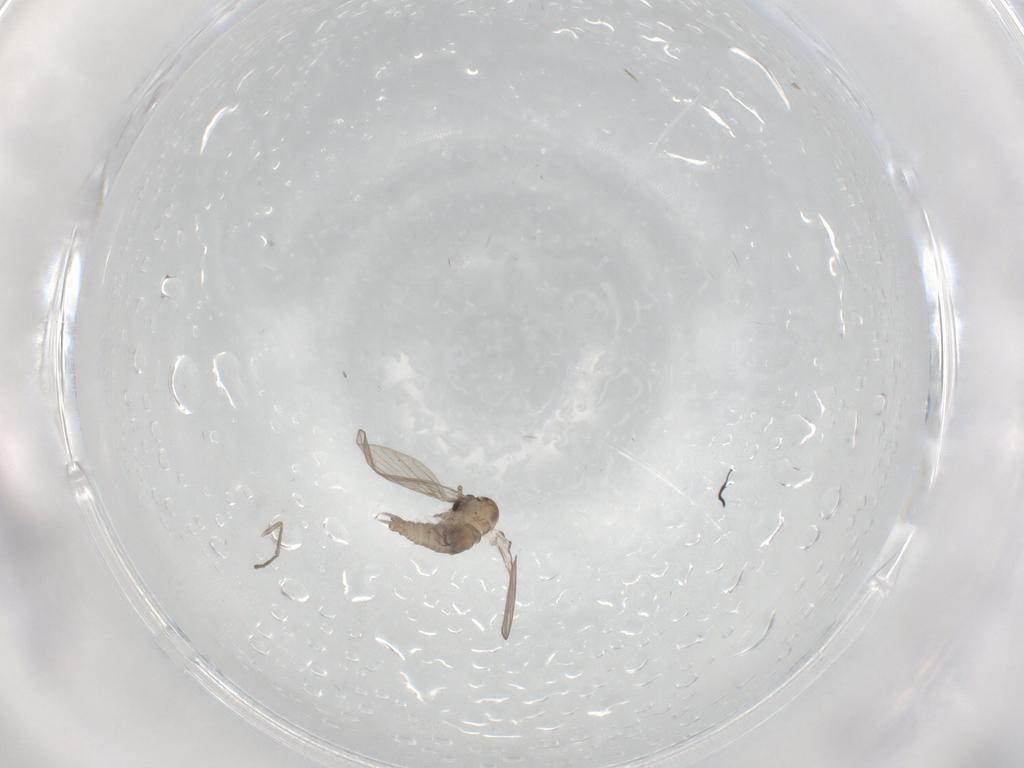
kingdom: Animalia
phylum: Arthropoda
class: Insecta
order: Diptera
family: Psychodidae
